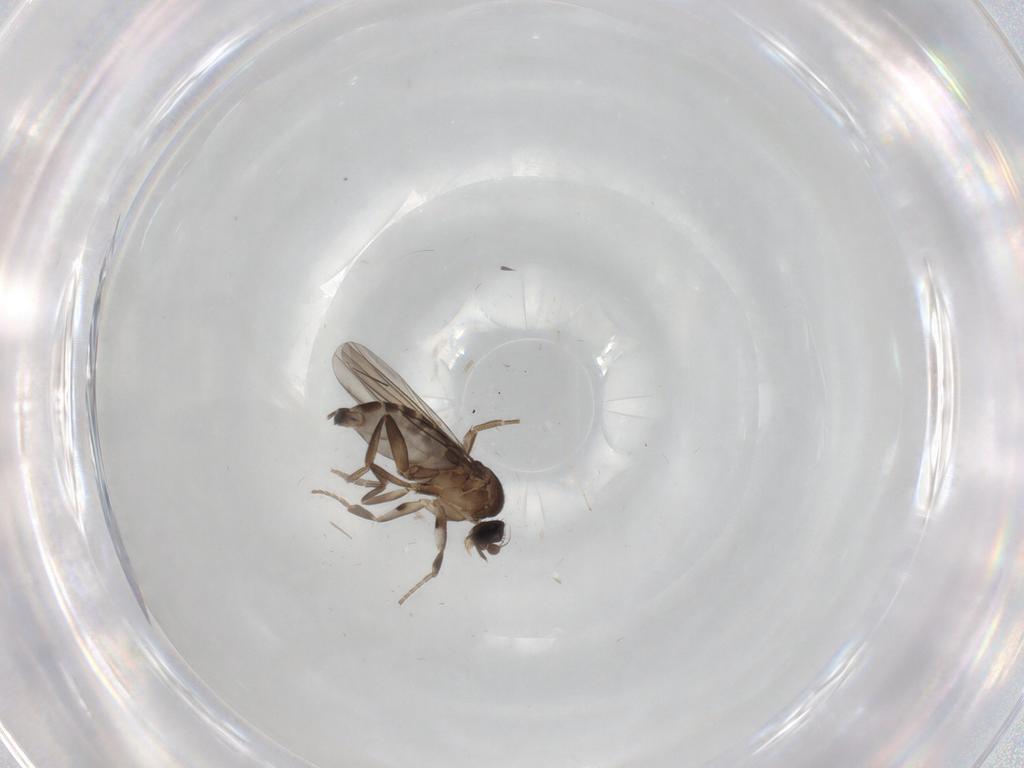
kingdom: Animalia
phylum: Arthropoda
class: Insecta
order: Diptera
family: Phoridae
